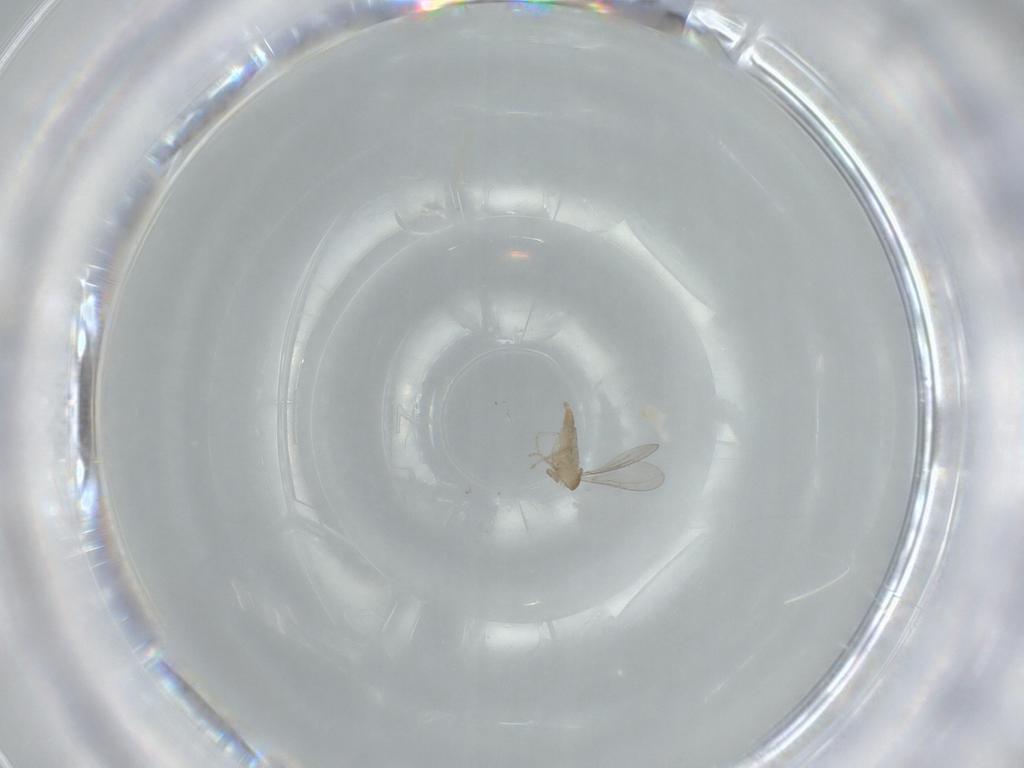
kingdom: Animalia
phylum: Arthropoda
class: Insecta
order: Diptera
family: Cecidomyiidae
